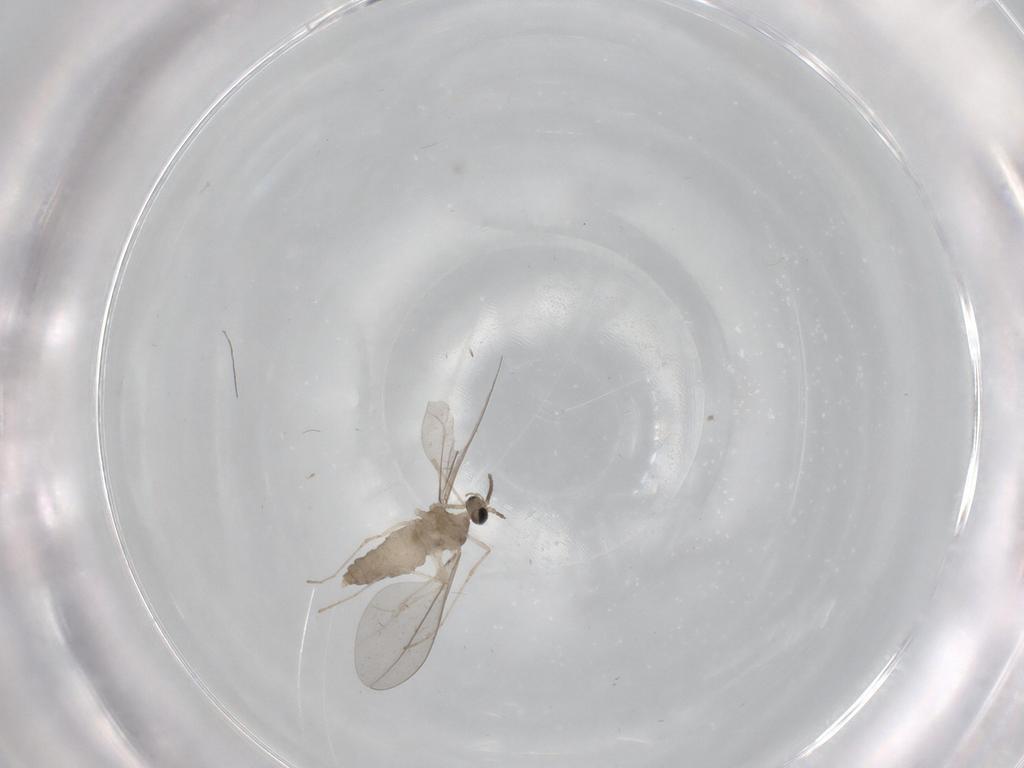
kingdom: Animalia
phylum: Arthropoda
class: Insecta
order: Diptera
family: Cecidomyiidae
